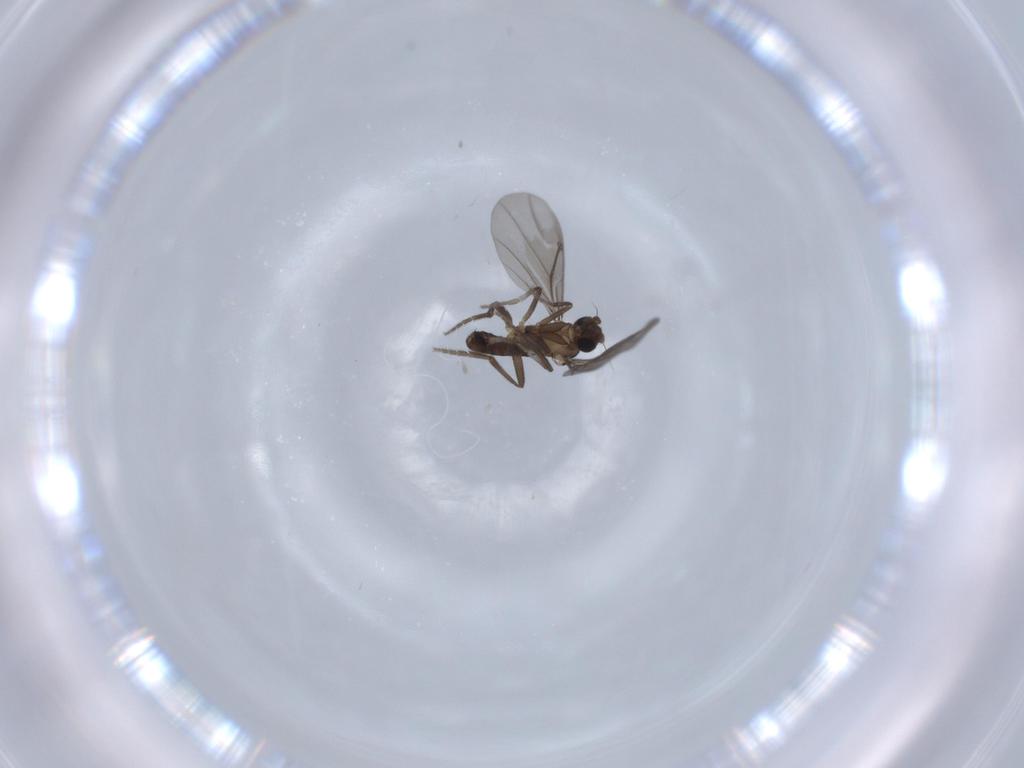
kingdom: Animalia
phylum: Arthropoda
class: Insecta
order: Diptera
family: Phoridae
